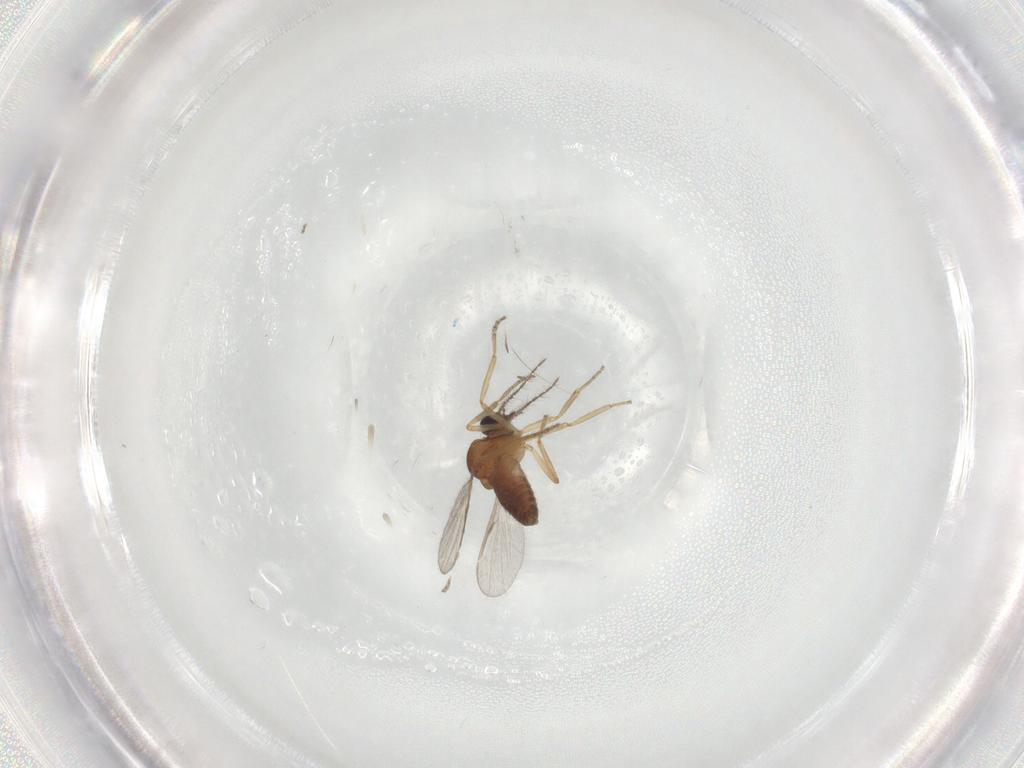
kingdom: Animalia
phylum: Arthropoda
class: Insecta
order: Diptera
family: Ceratopogonidae
